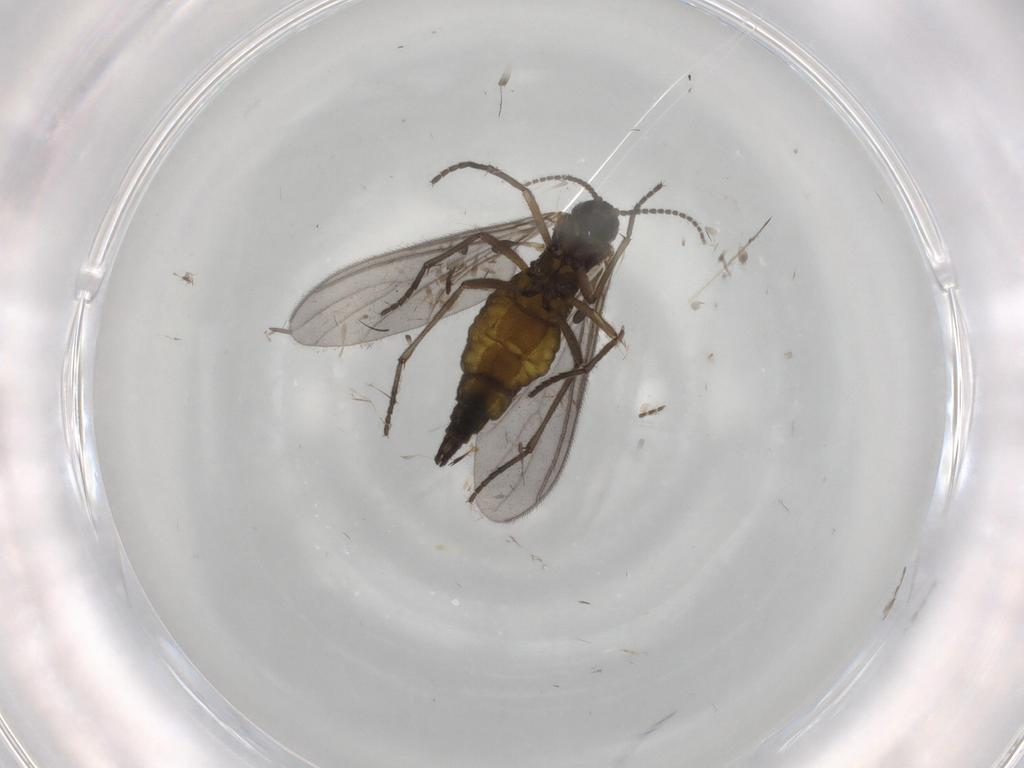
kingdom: Animalia
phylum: Arthropoda
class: Insecta
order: Diptera
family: Sciaridae
